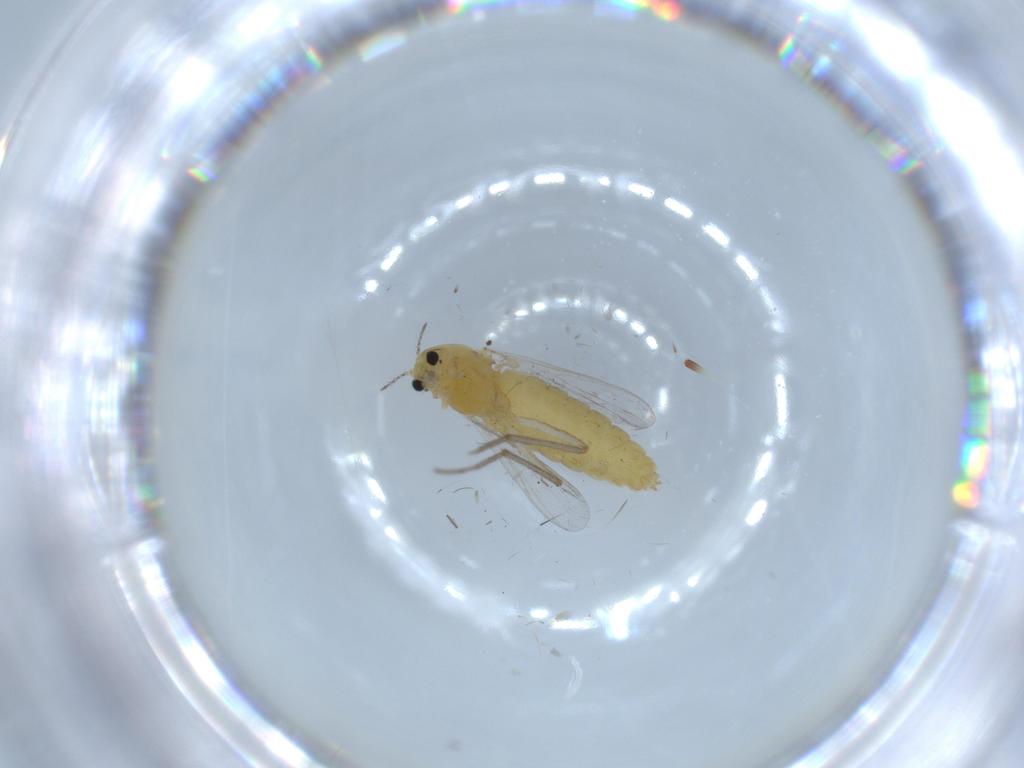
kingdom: Animalia
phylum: Arthropoda
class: Insecta
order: Diptera
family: Chironomidae
